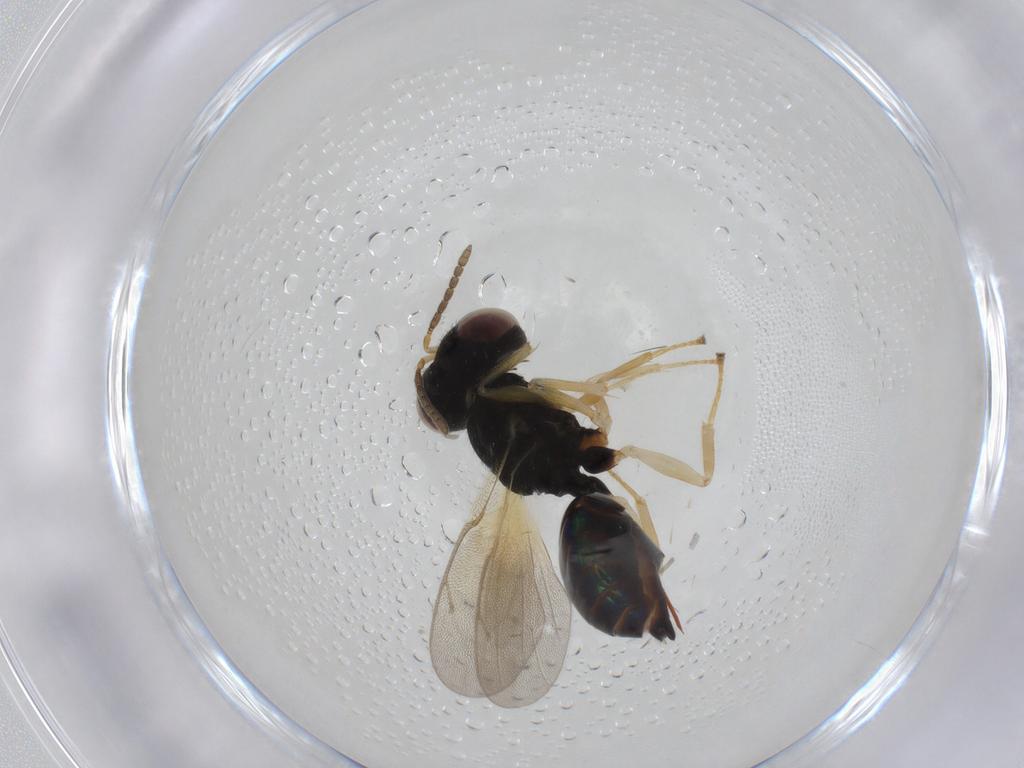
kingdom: Animalia
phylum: Arthropoda
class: Insecta
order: Hymenoptera
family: Pteromalidae
